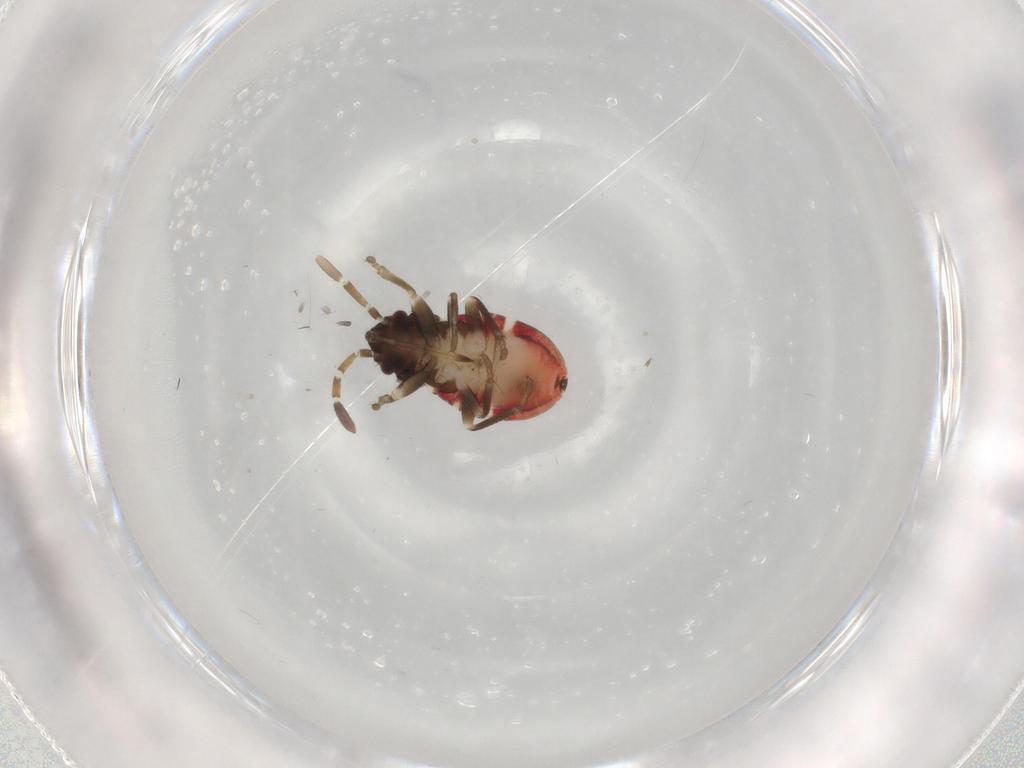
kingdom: Animalia
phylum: Arthropoda
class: Insecta
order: Hemiptera
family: Rhyparochromidae
